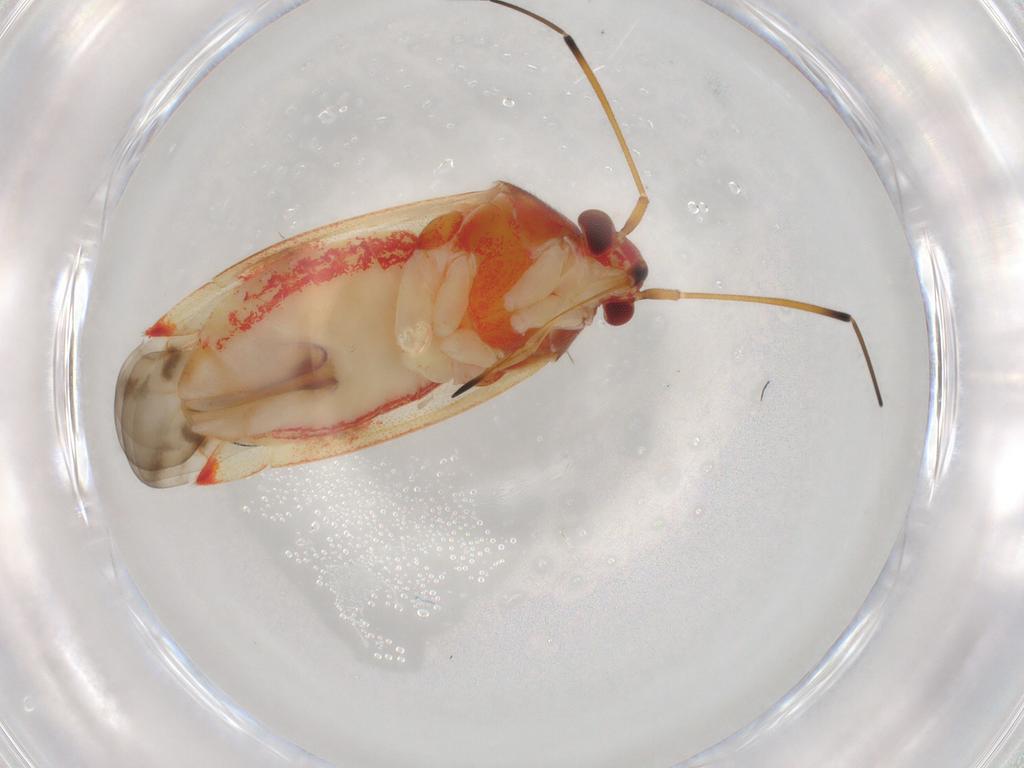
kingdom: Animalia
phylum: Arthropoda
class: Insecta
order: Hemiptera
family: Miridae
